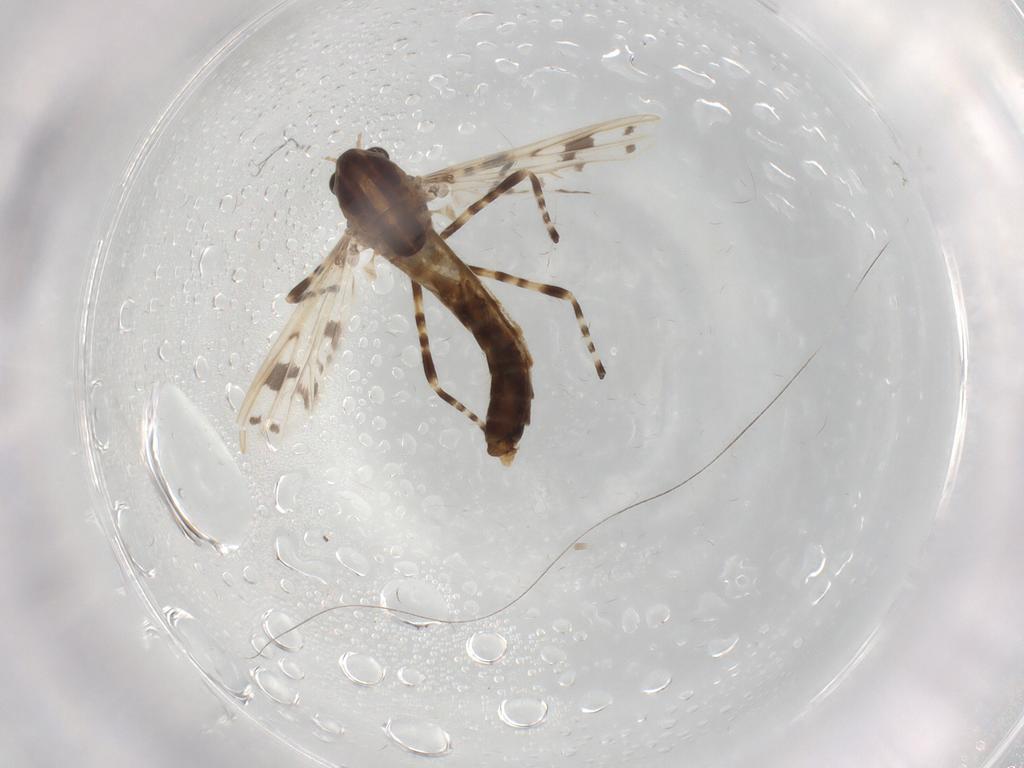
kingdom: Animalia
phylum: Arthropoda
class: Insecta
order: Diptera
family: Chironomidae
